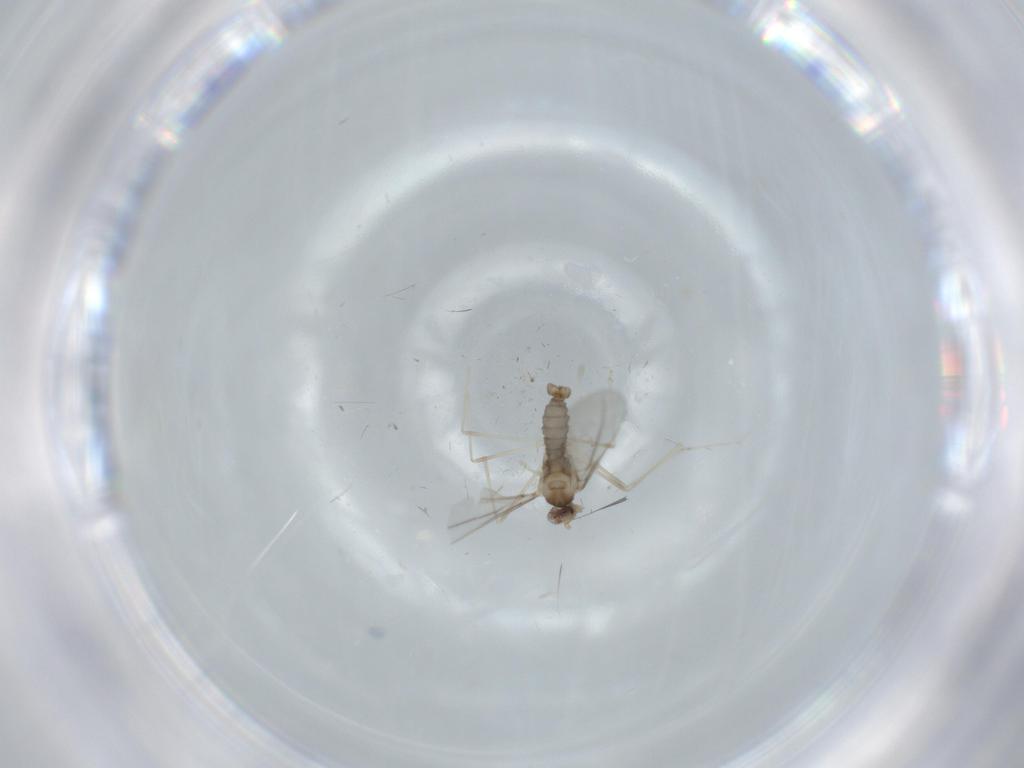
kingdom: Animalia
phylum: Arthropoda
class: Insecta
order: Diptera
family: Cecidomyiidae
